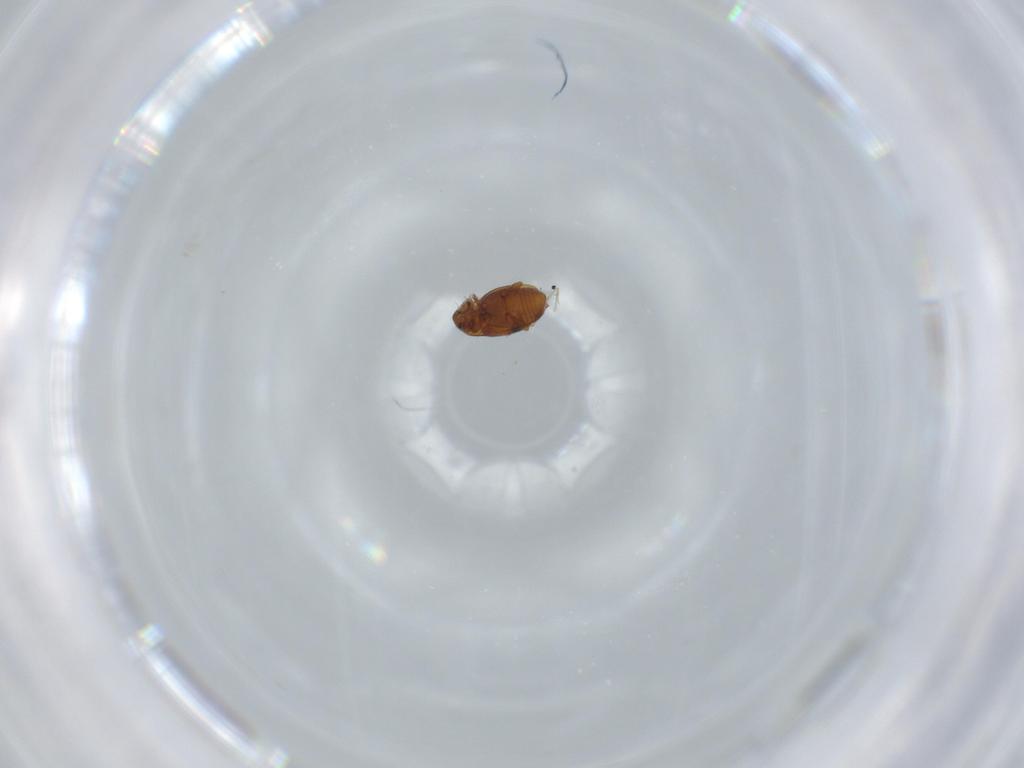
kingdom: Animalia
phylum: Arthropoda
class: Insecta
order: Coleoptera
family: Corylophidae
